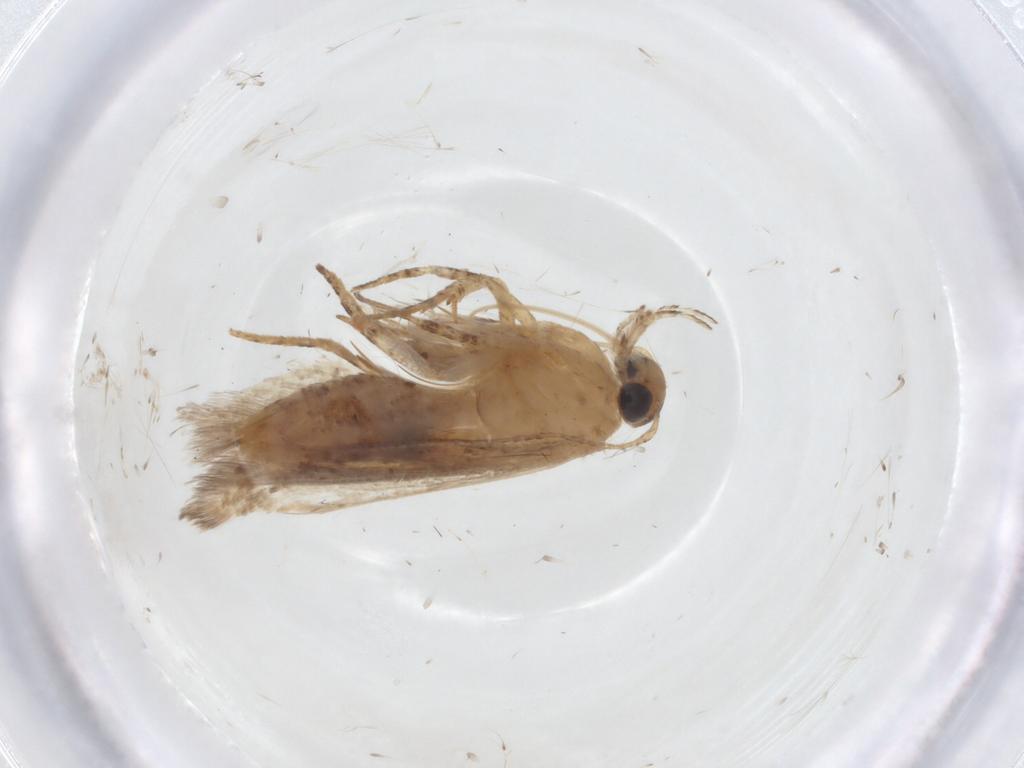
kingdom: Animalia
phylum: Arthropoda
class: Insecta
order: Lepidoptera
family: Gelechiidae
